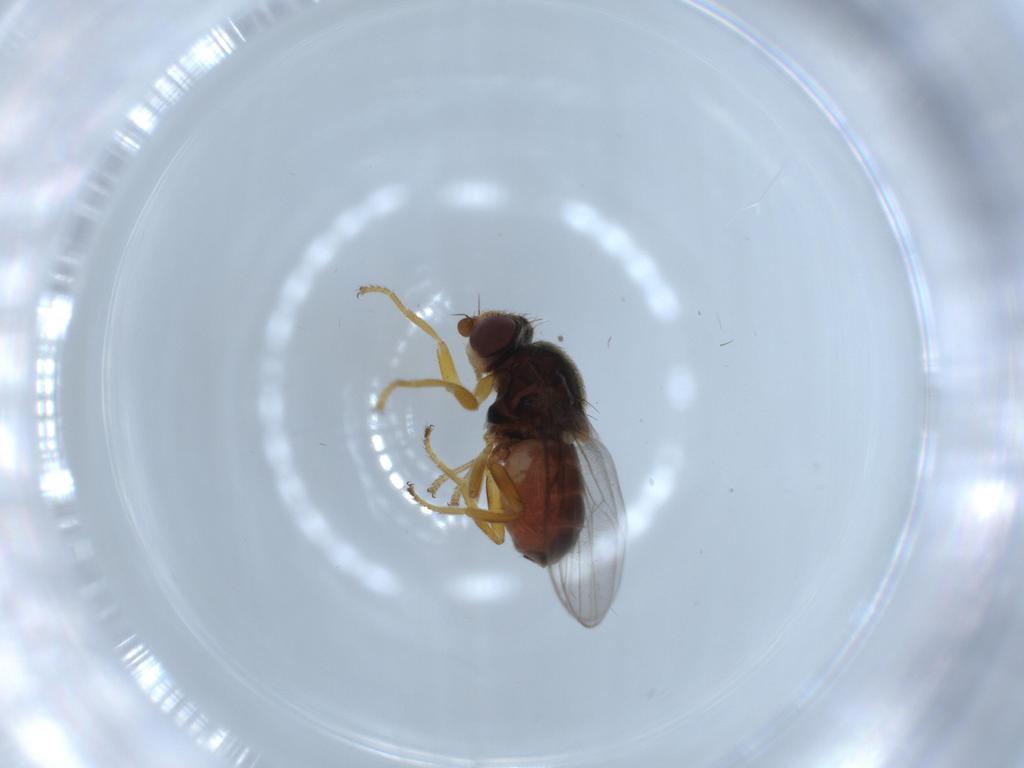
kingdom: Animalia
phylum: Arthropoda
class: Insecta
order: Diptera
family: Chloropidae
